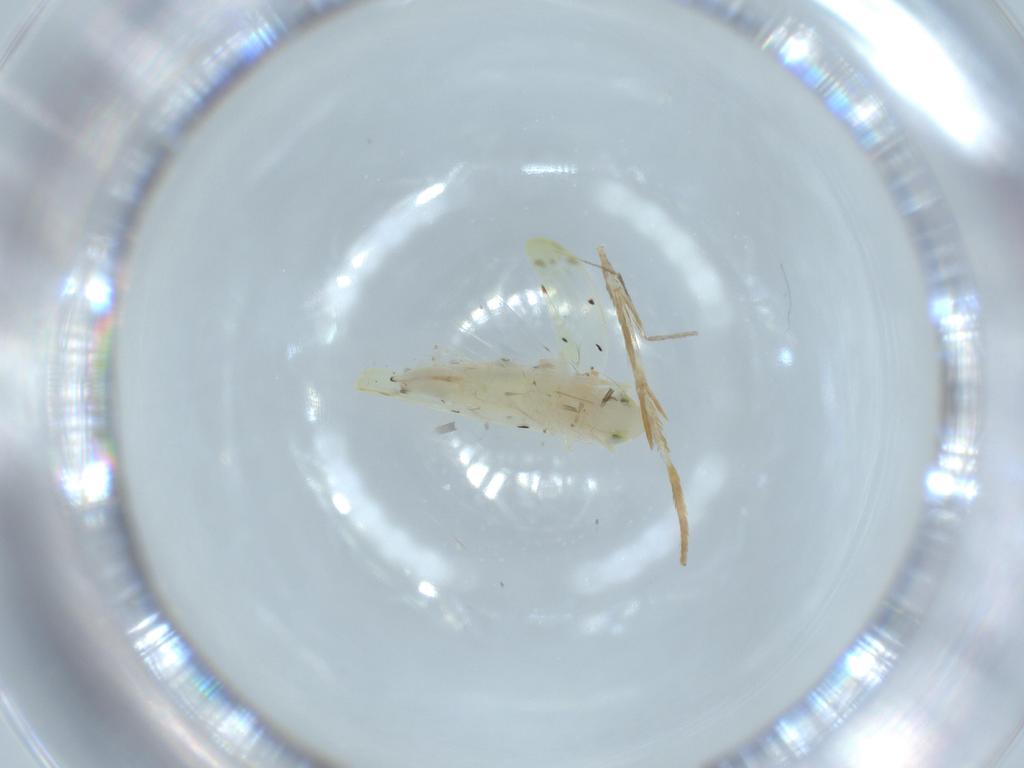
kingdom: Animalia
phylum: Arthropoda
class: Insecta
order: Hemiptera
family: Cicadellidae
